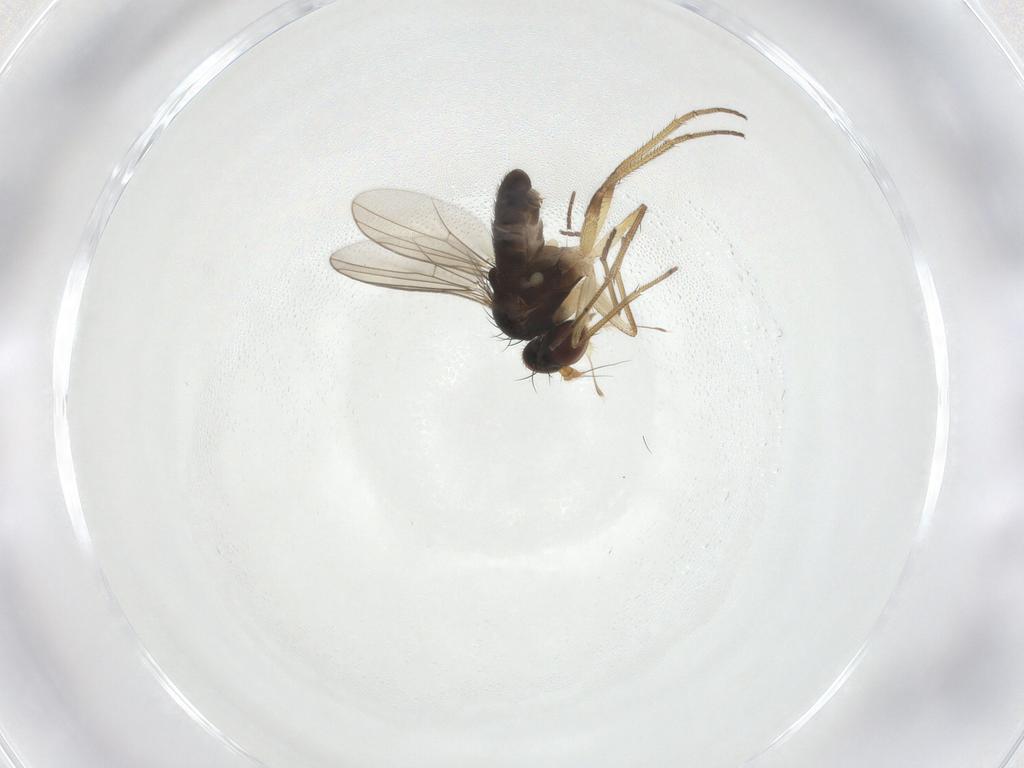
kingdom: Animalia
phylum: Arthropoda
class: Insecta
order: Diptera
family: Dolichopodidae
